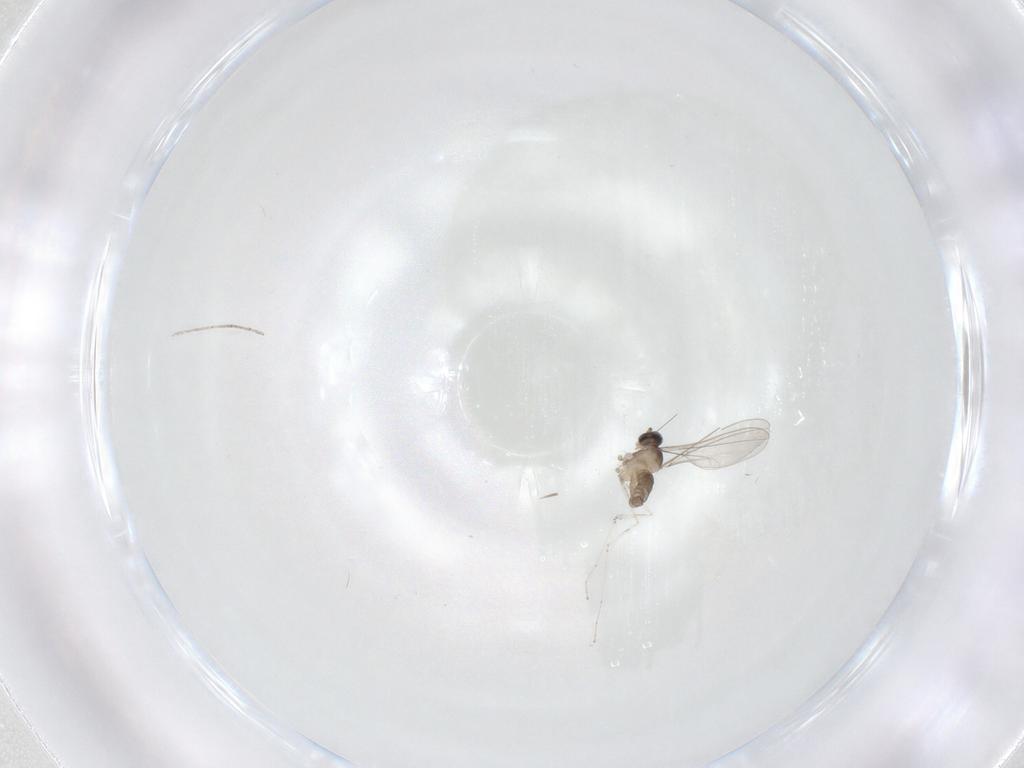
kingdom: Animalia
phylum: Arthropoda
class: Insecta
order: Diptera
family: Cecidomyiidae
